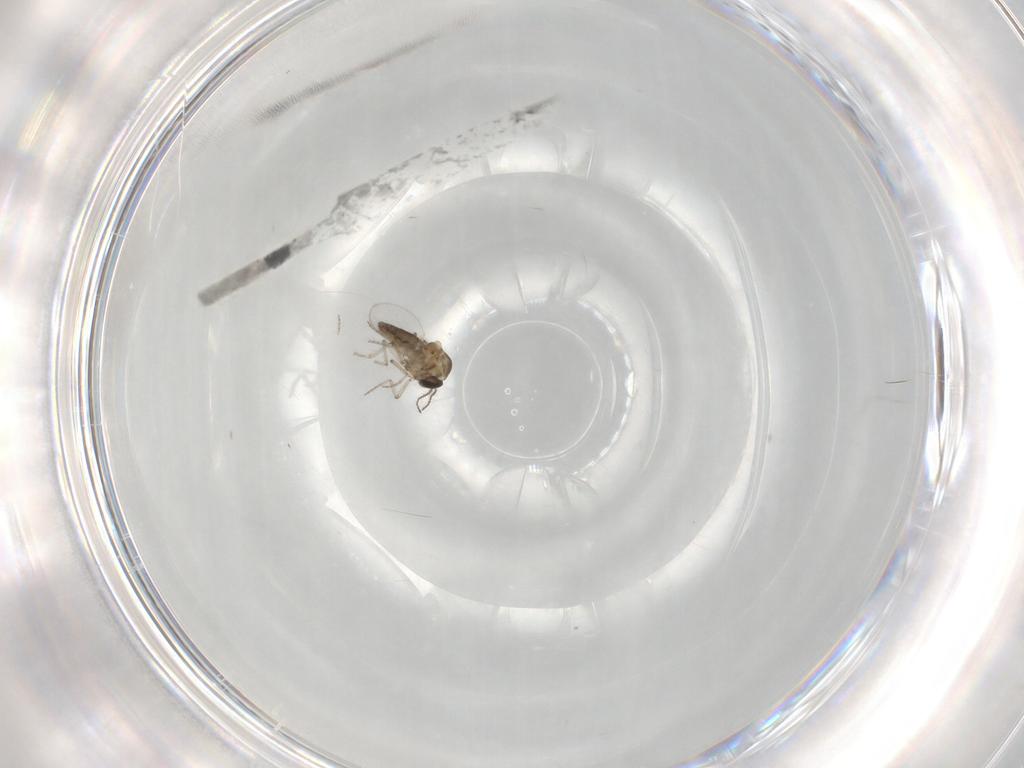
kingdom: Animalia
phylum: Arthropoda
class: Insecta
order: Diptera
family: Ceratopogonidae
